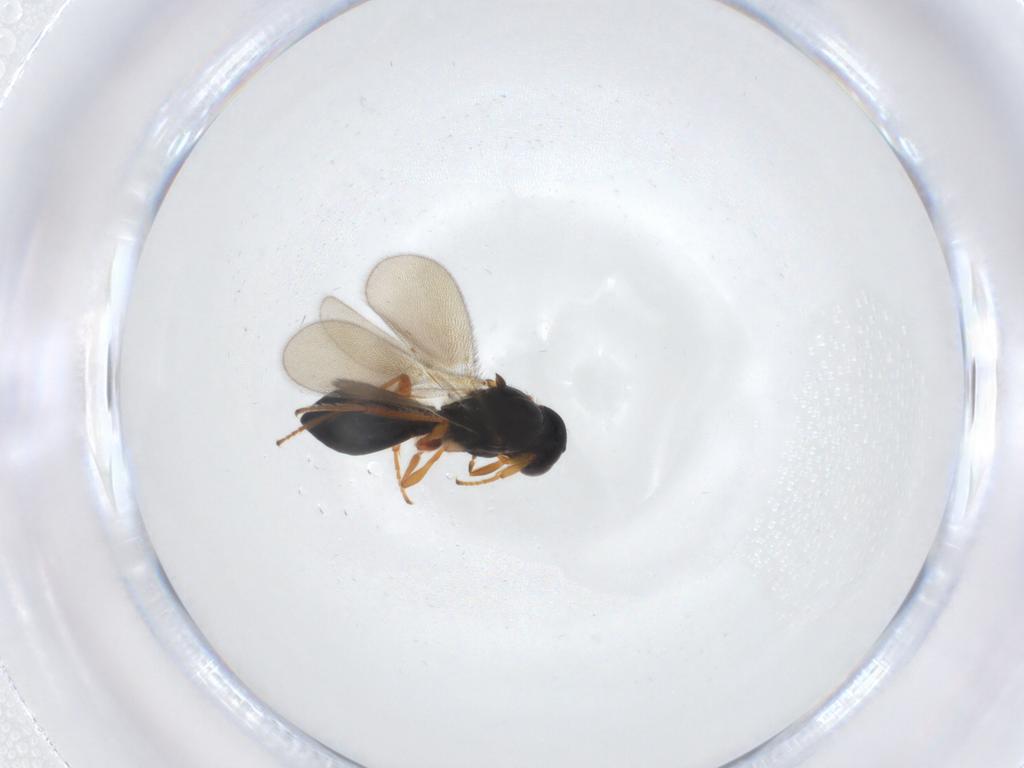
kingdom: Animalia
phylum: Arthropoda
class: Insecta
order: Hymenoptera
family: Platygastridae
